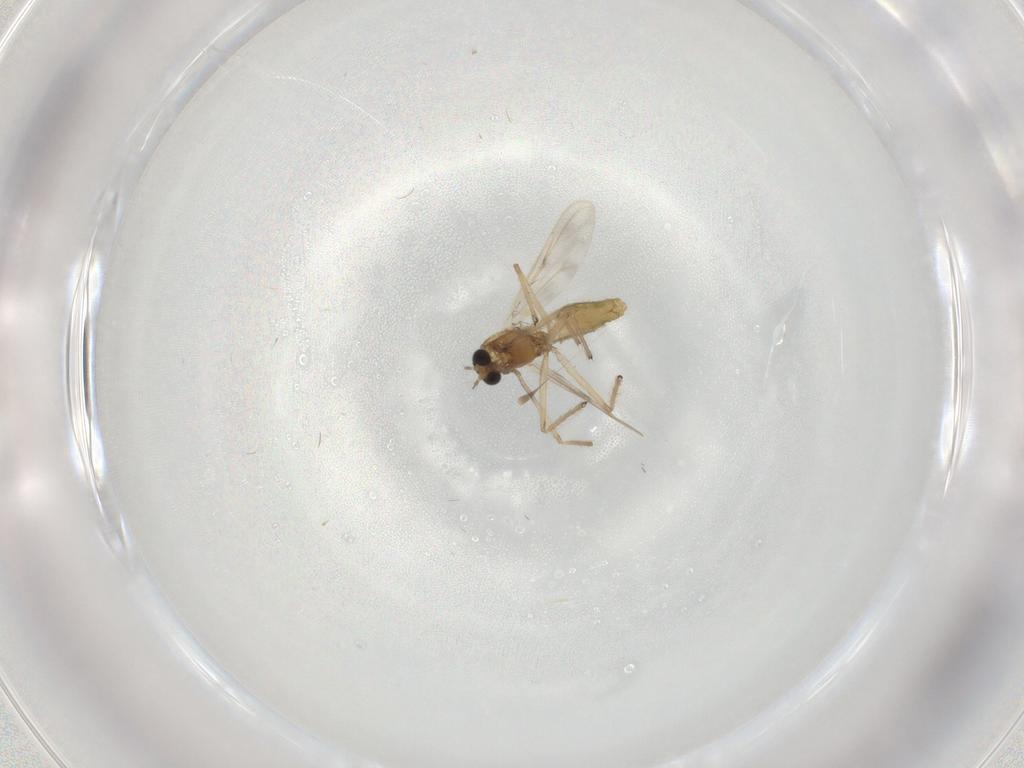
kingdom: Animalia
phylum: Arthropoda
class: Insecta
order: Diptera
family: Chironomidae
